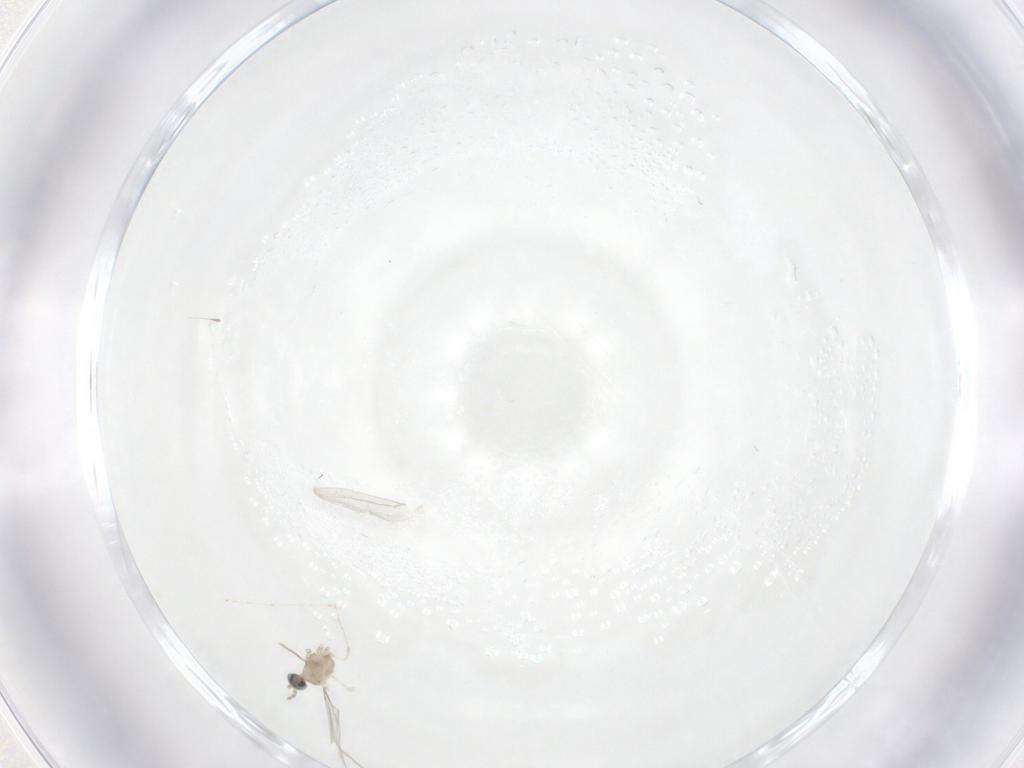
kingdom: Animalia
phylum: Arthropoda
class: Insecta
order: Diptera
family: Cecidomyiidae
